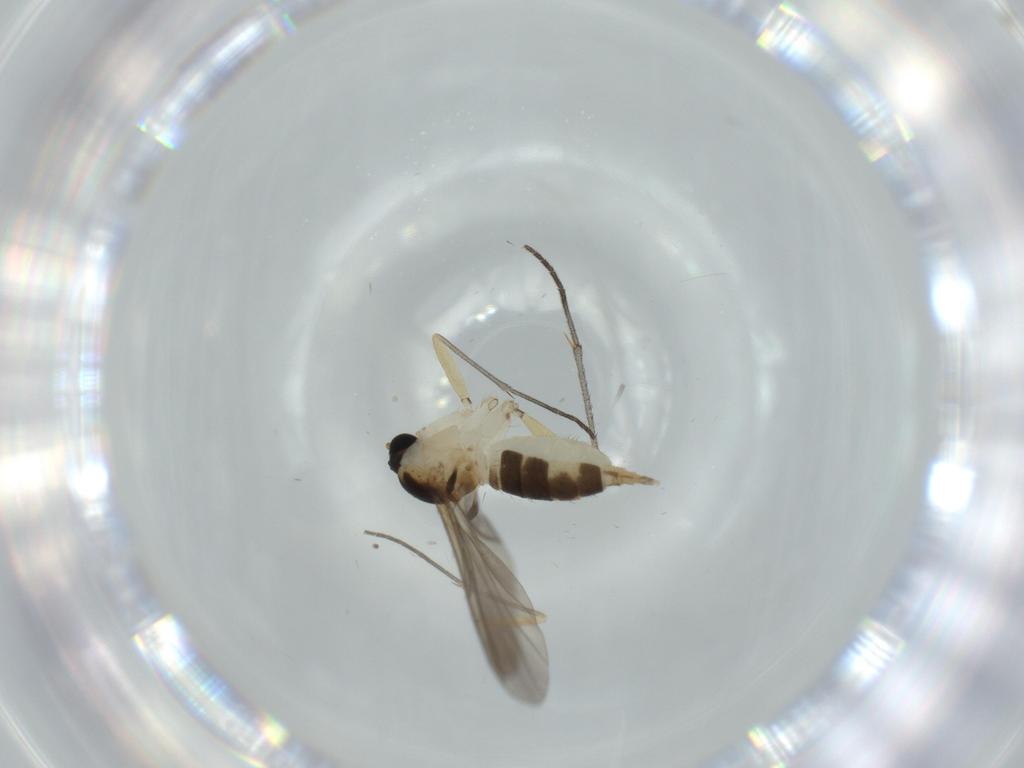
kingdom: Animalia
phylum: Arthropoda
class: Insecta
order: Diptera
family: Sciaridae
